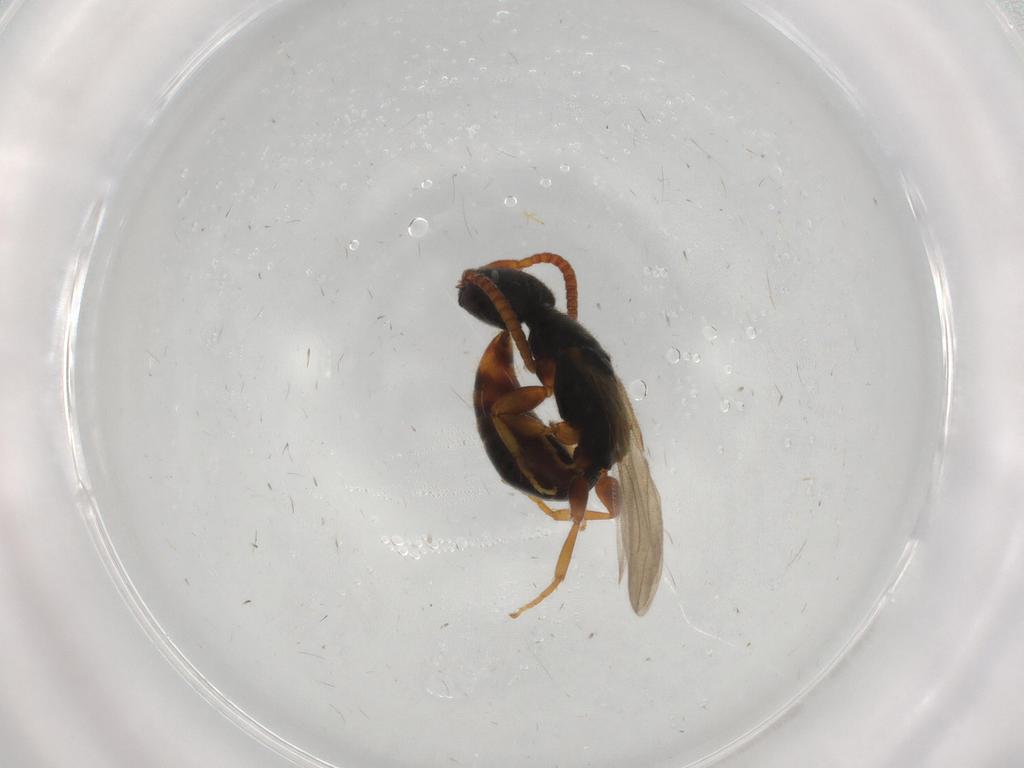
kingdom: Animalia
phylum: Arthropoda
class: Insecta
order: Hymenoptera
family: Bethylidae
